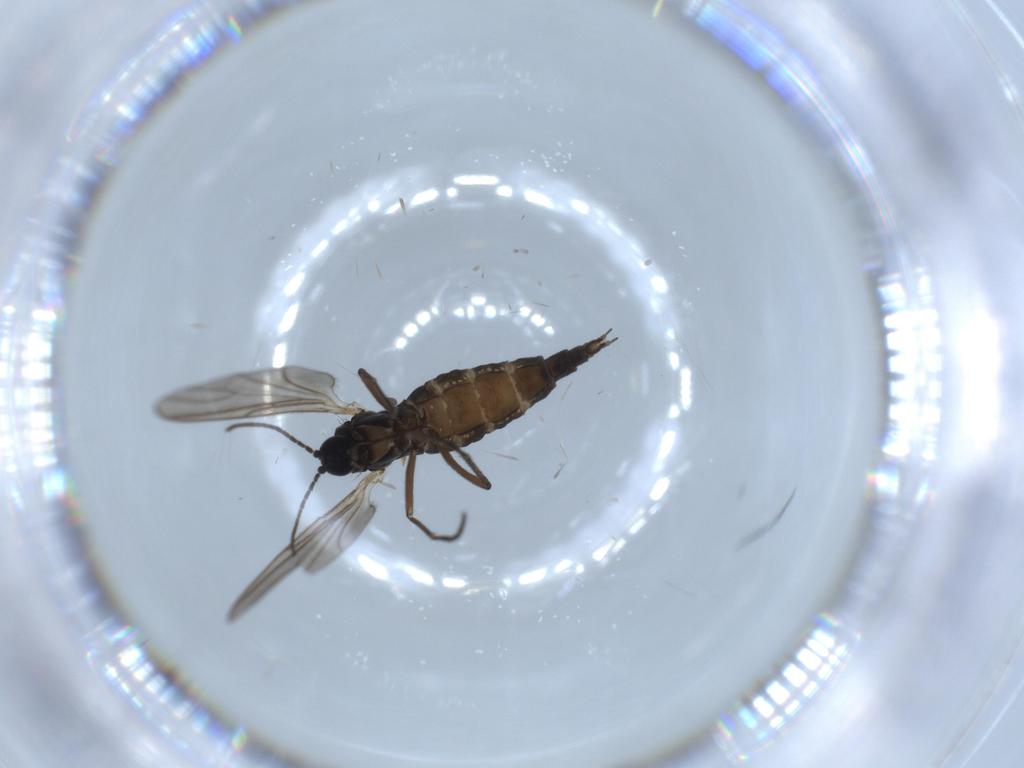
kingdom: Animalia
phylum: Arthropoda
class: Insecta
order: Diptera
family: Sciaridae
